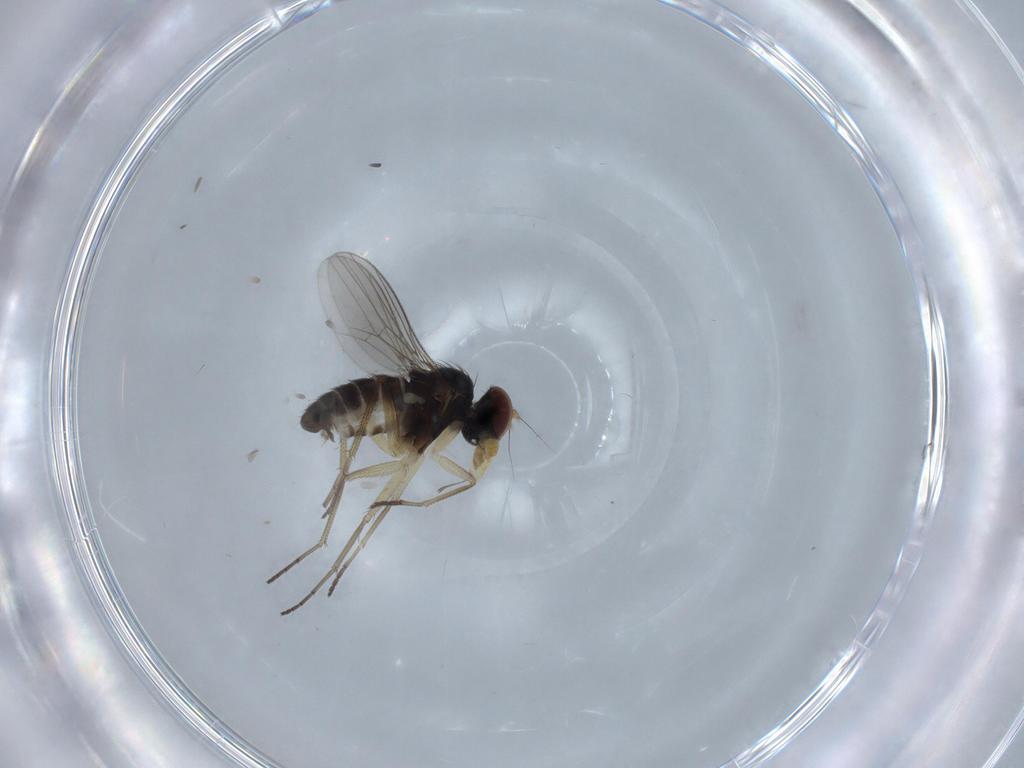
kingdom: Animalia
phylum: Arthropoda
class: Insecta
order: Diptera
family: Dolichopodidae
